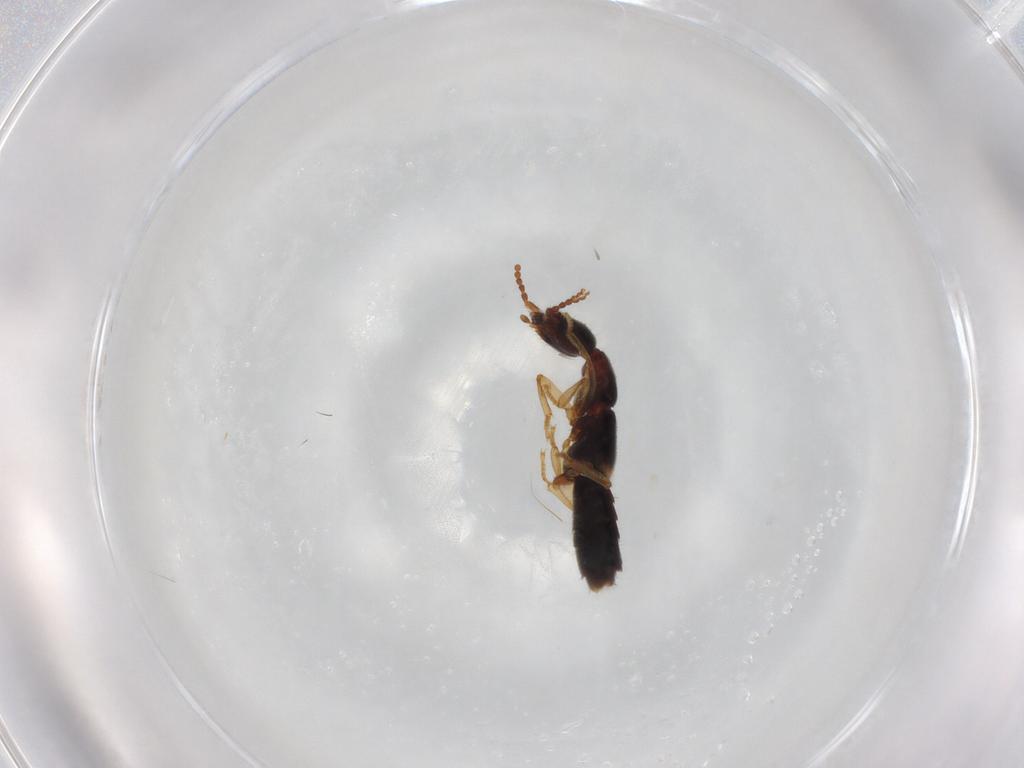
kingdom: Animalia
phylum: Arthropoda
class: Insecta
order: Coleoptera
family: Staphylinidae
